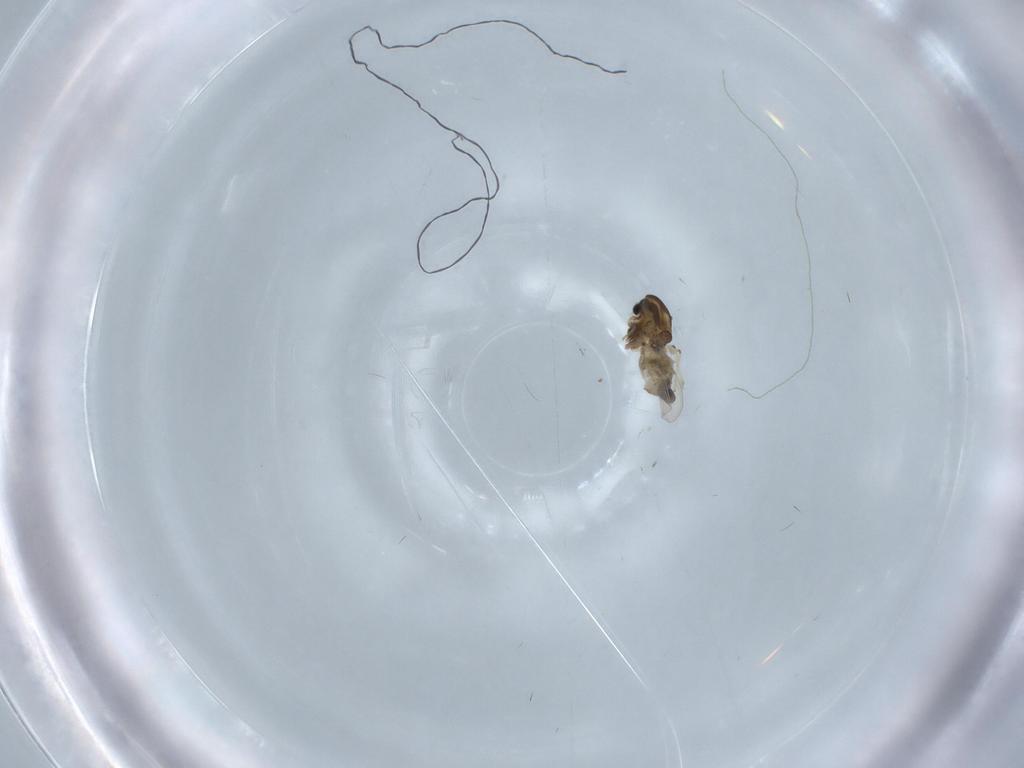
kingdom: Animalia
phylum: Arthropoda
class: Insecta
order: Diptera
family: Chironomidae
